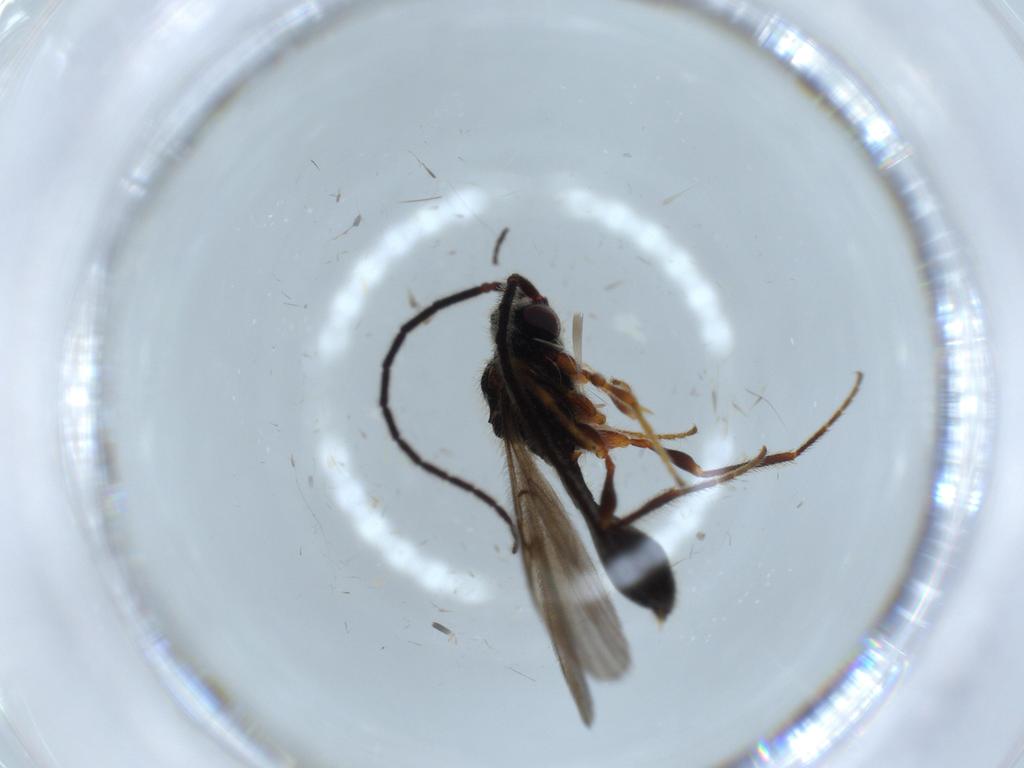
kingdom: Animalia
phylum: Arthropoda
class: Insecta
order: Hymenoptera
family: Diapriidae
